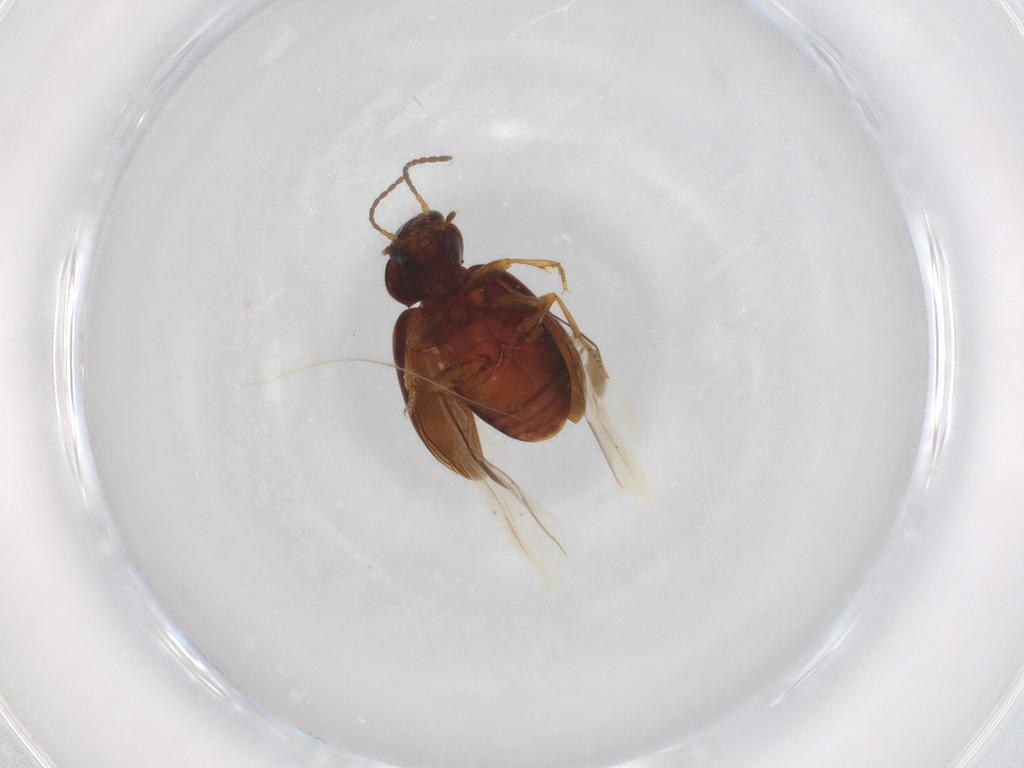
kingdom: Animalia
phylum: Arthropoda
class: Insecta
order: Coleoptera
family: Carabidae
